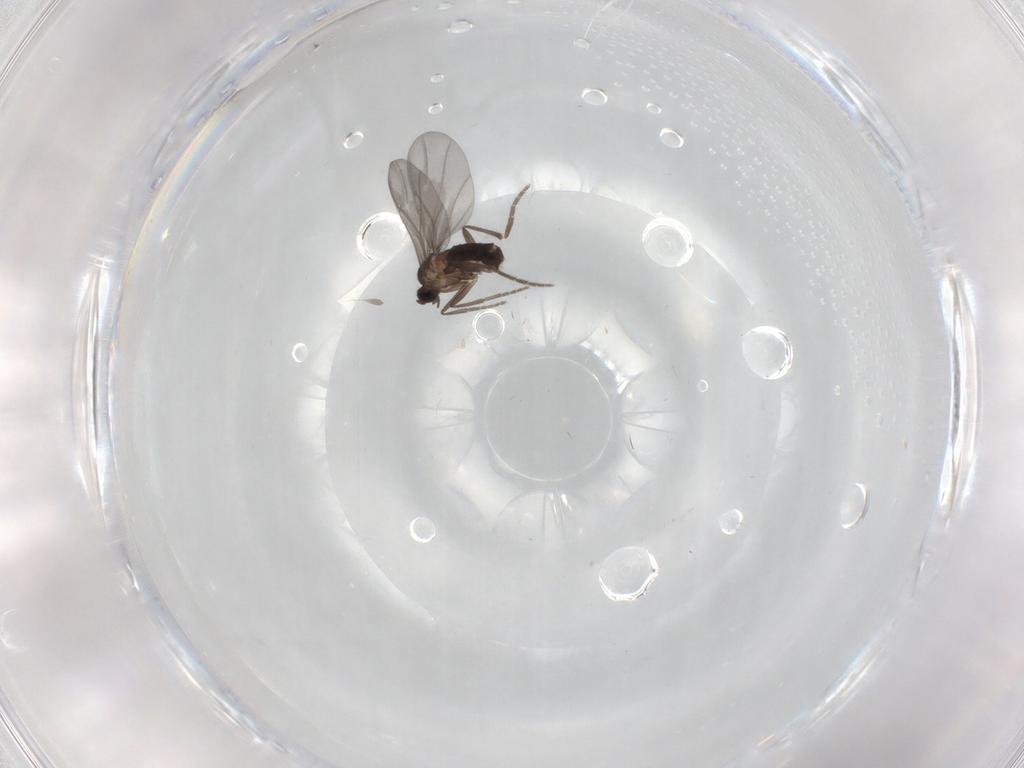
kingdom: Animalia
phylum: Arthropoda
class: Insecta
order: Diptera
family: Phoridae
